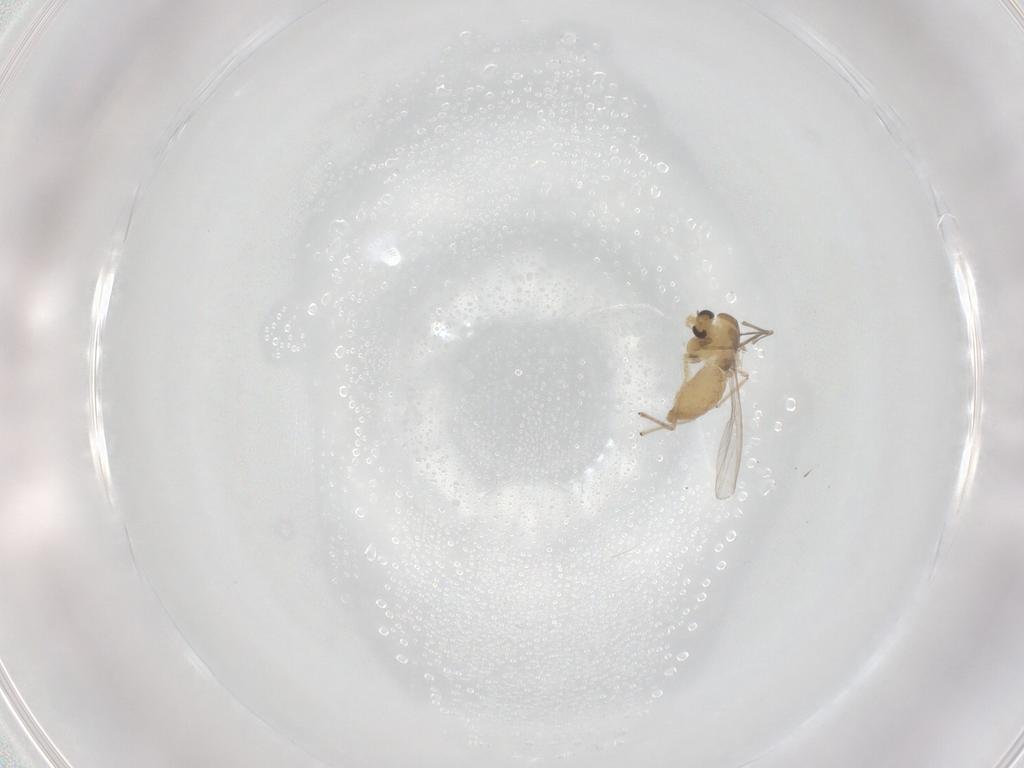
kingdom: Animalia
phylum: Arthropoda
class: Insecta
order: Diptera
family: Chironomidae
